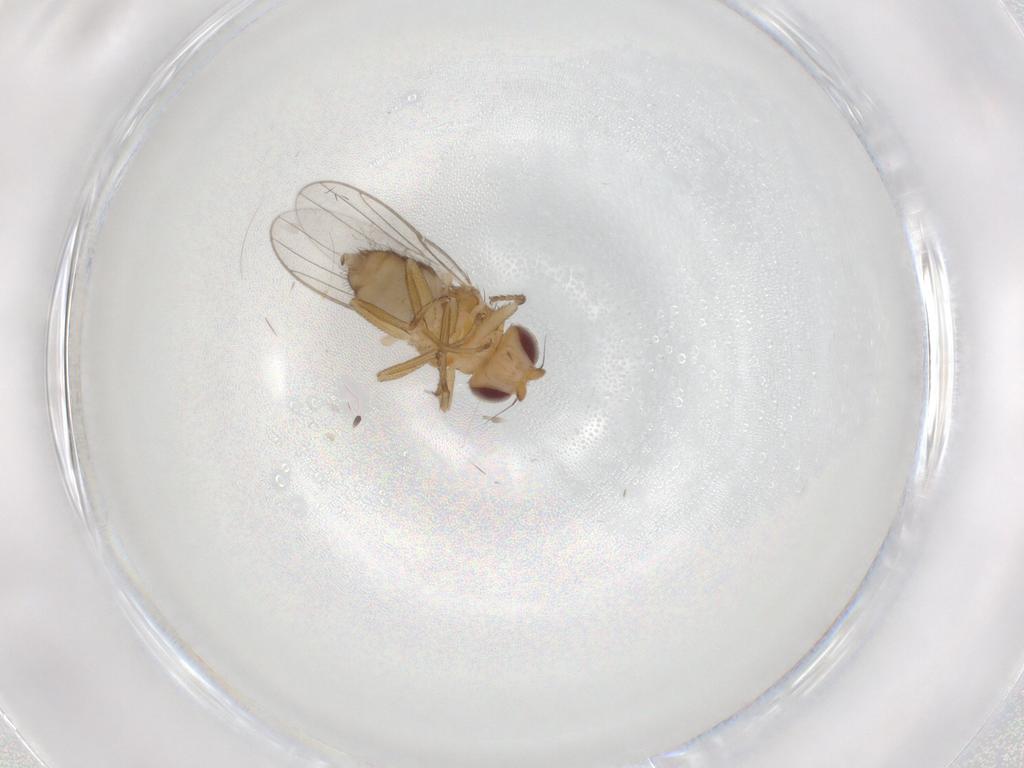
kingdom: Animalia
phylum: Arthropoda
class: Insecta
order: Diptera
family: Chloropidae
